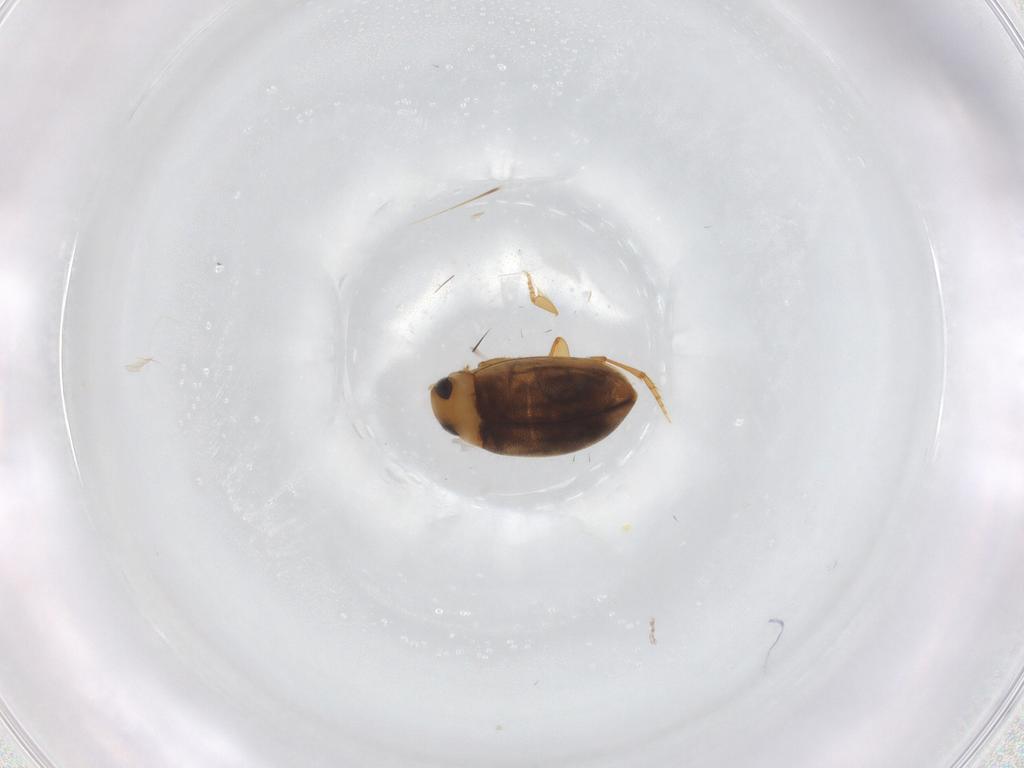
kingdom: Animalia
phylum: Arthropoda
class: Insecta
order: Coleoptera
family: Dytiscidae
